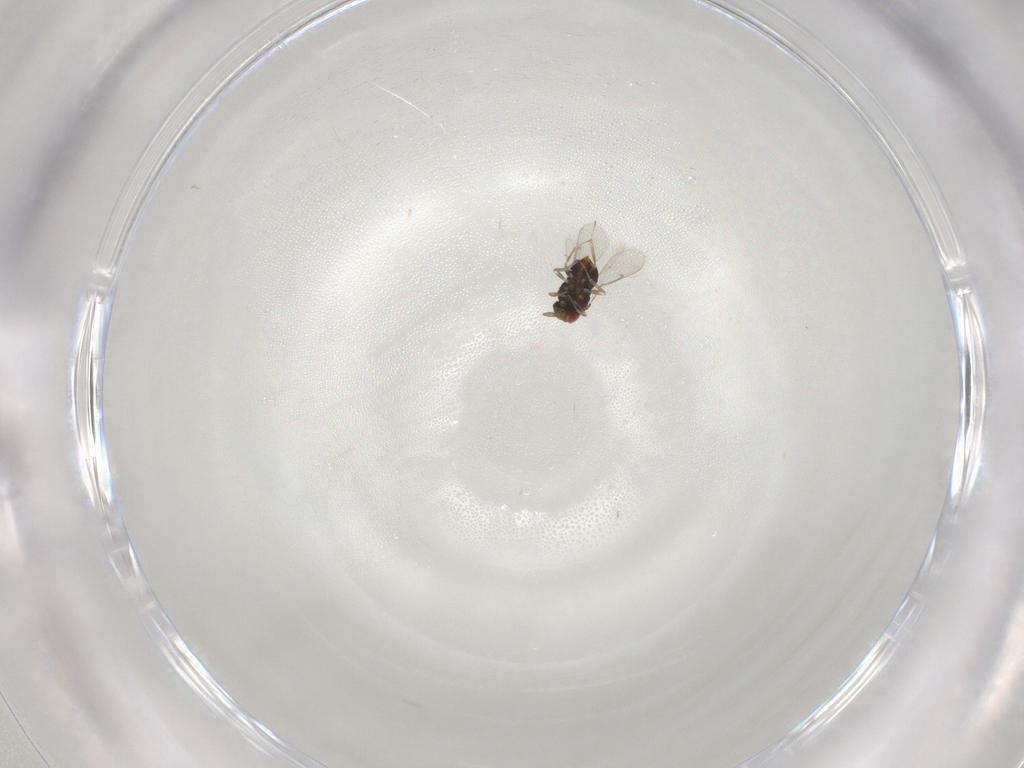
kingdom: Animalia
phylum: Arthropoda
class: Insecta
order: Hymenoptera
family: Aphelinidae
